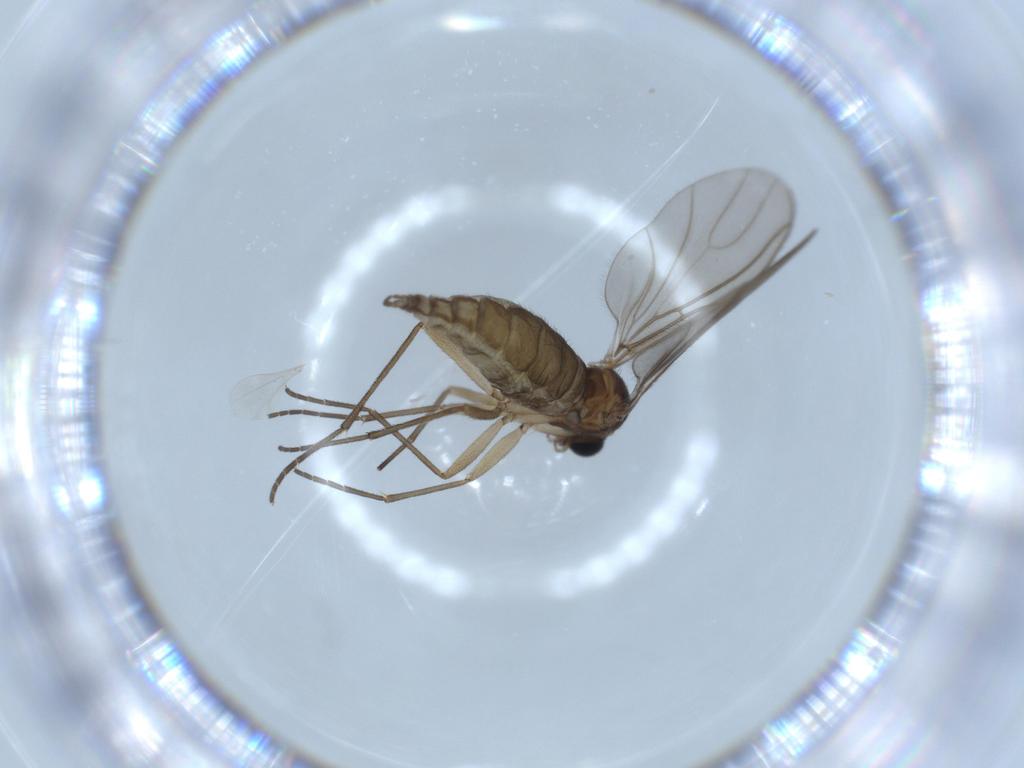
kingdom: Animalia
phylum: Arthropoda
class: Insecta
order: Diptera
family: Sciaridae
